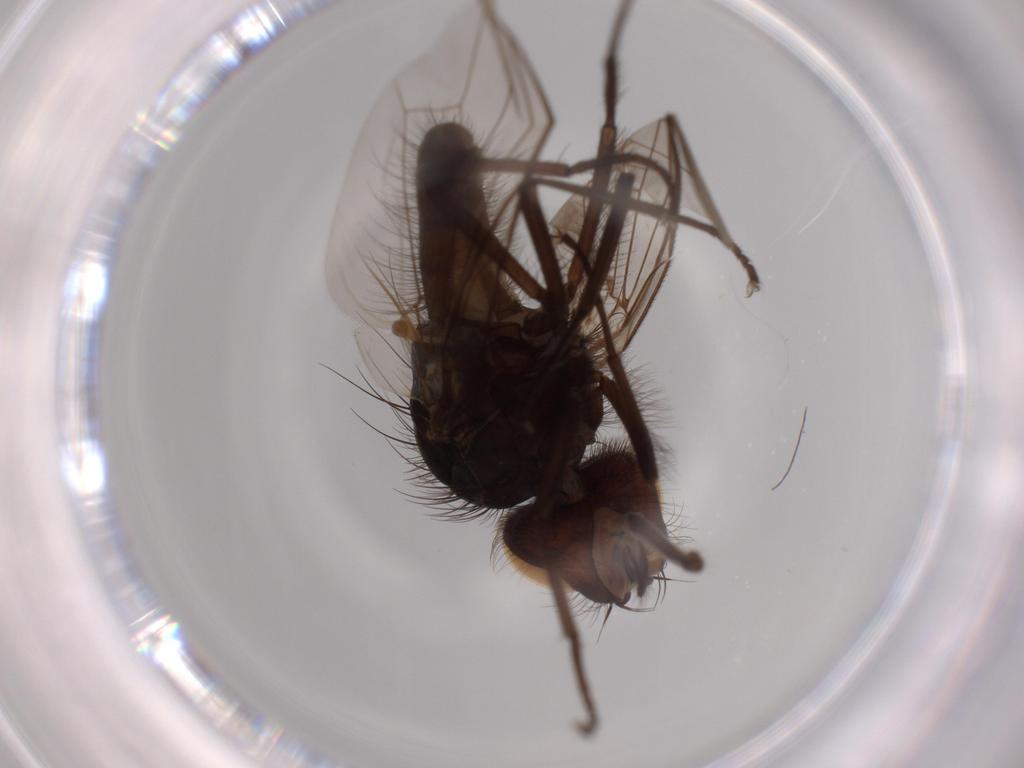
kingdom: Animalia
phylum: Arthropoda
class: Insecta
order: Diptera
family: Anthomyiidae
